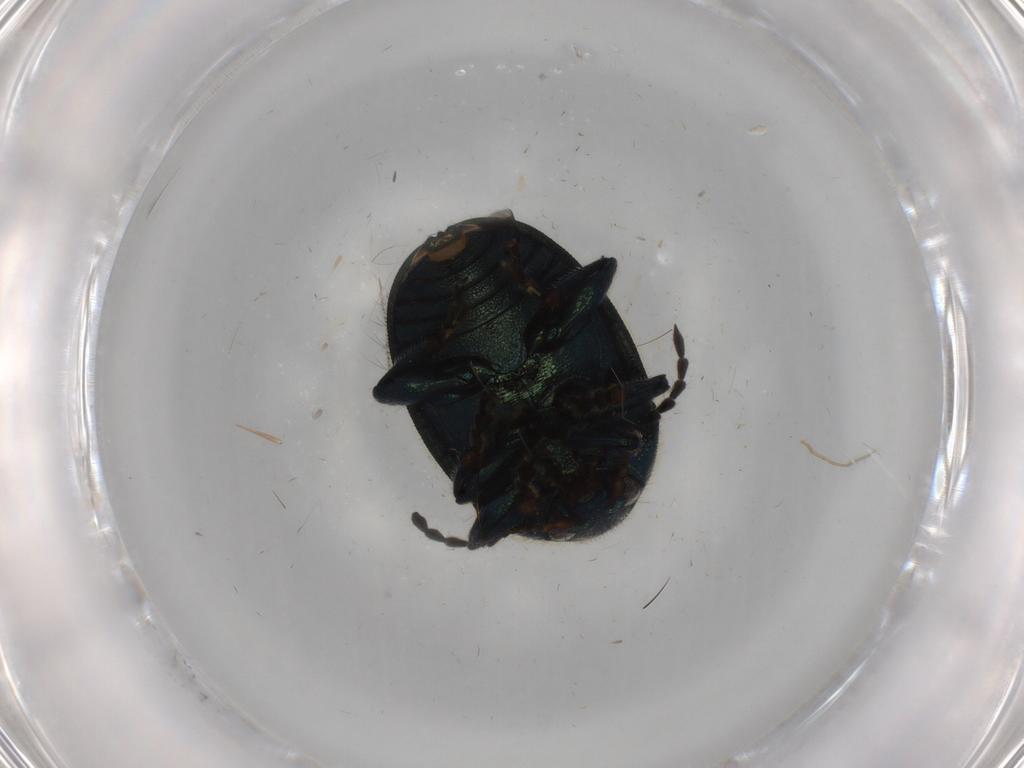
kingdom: Animalia
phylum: Arthropoda
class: Insecta
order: Coleoptera
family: Chrysomelidae
